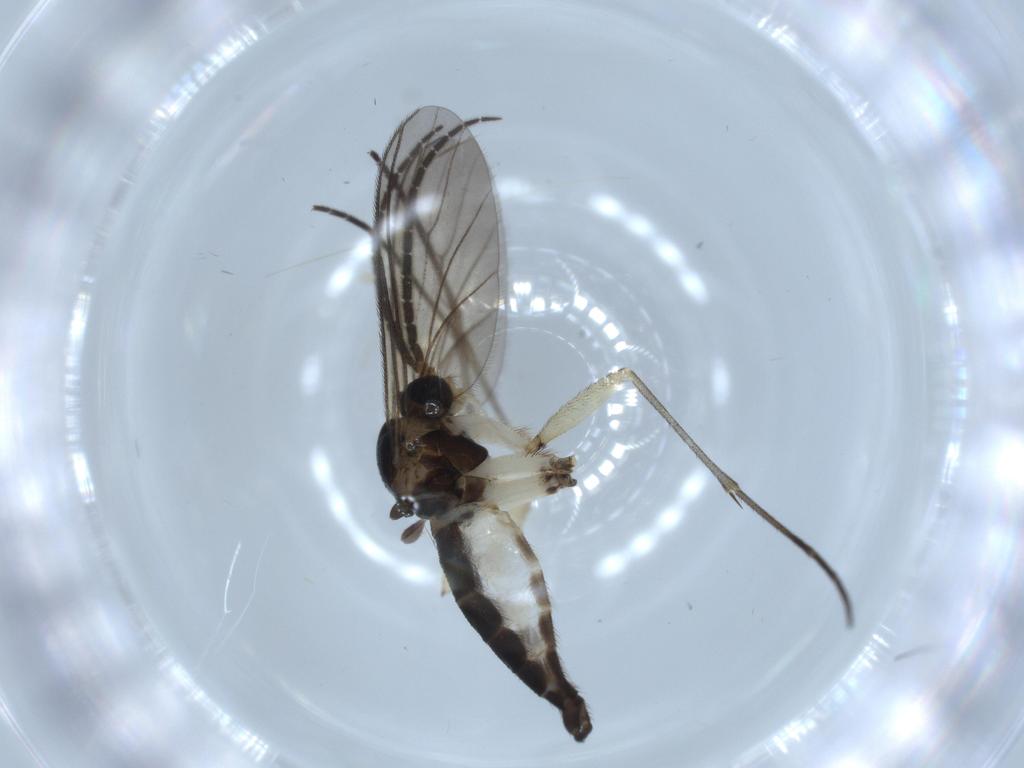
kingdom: Animalia
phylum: Arthropoda
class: Insecta
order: Diptera
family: Sciaridae
